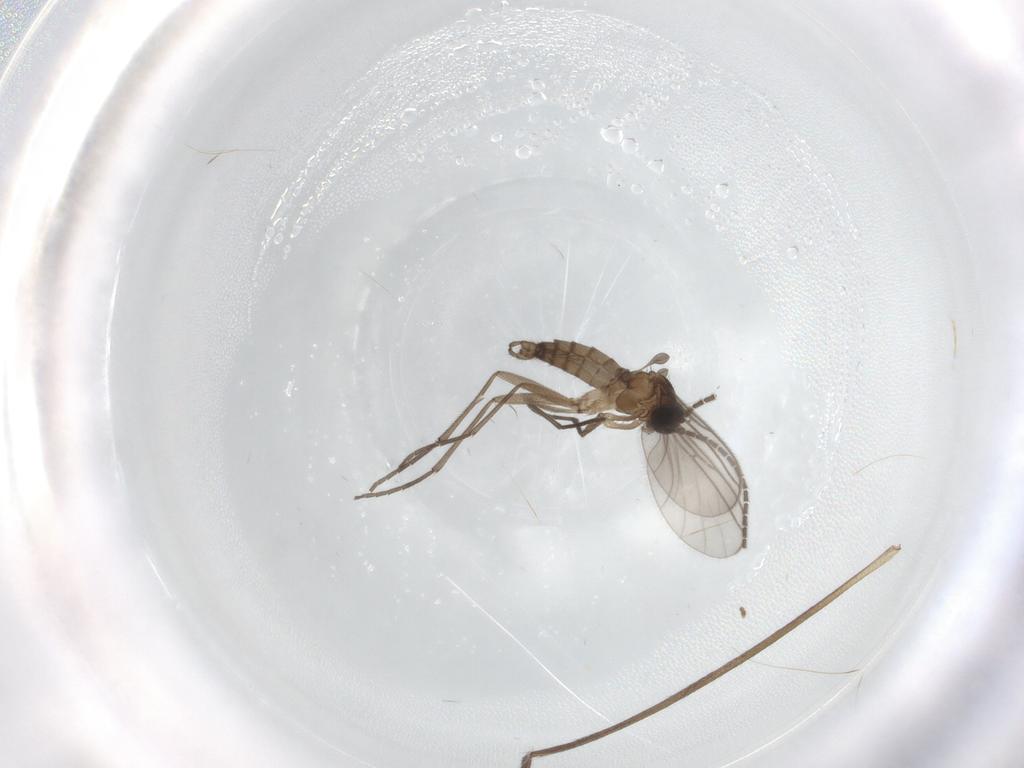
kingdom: Animalia
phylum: Arthropoda
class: Insecta
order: Diptera
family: Limoniidae
